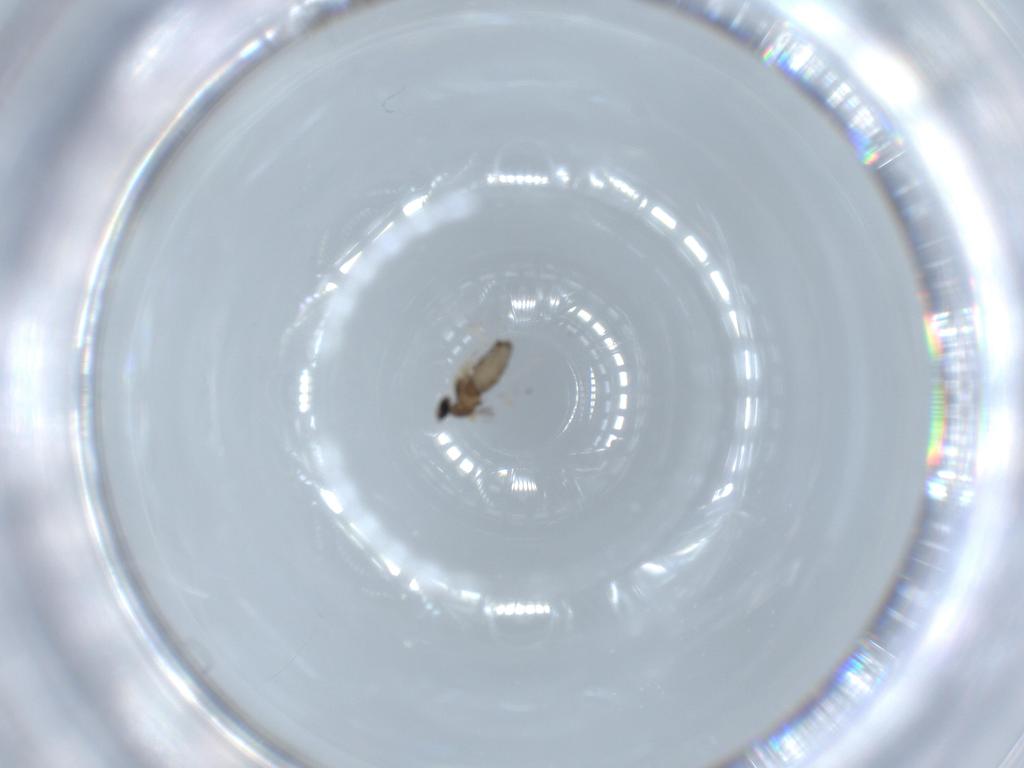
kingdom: Animalia
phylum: Arthropoda
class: Insecta
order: Diptera
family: Cecidomyiidae
